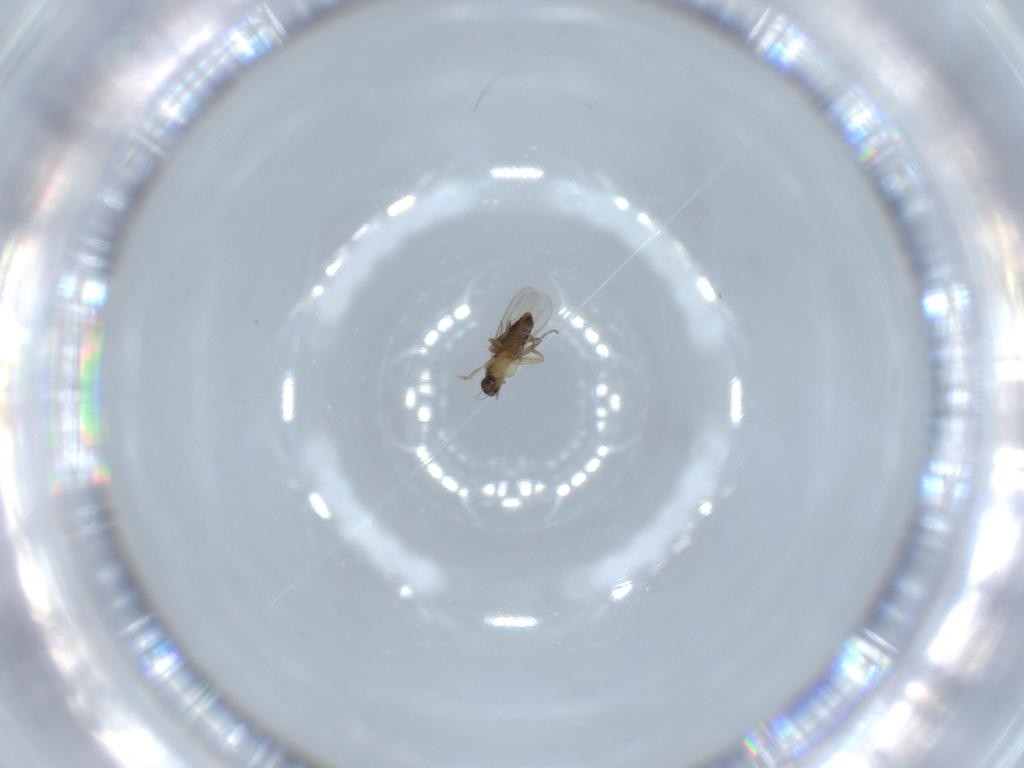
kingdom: Animalia
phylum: Arthropoda
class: Insecta
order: Diptera
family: Phoridae
